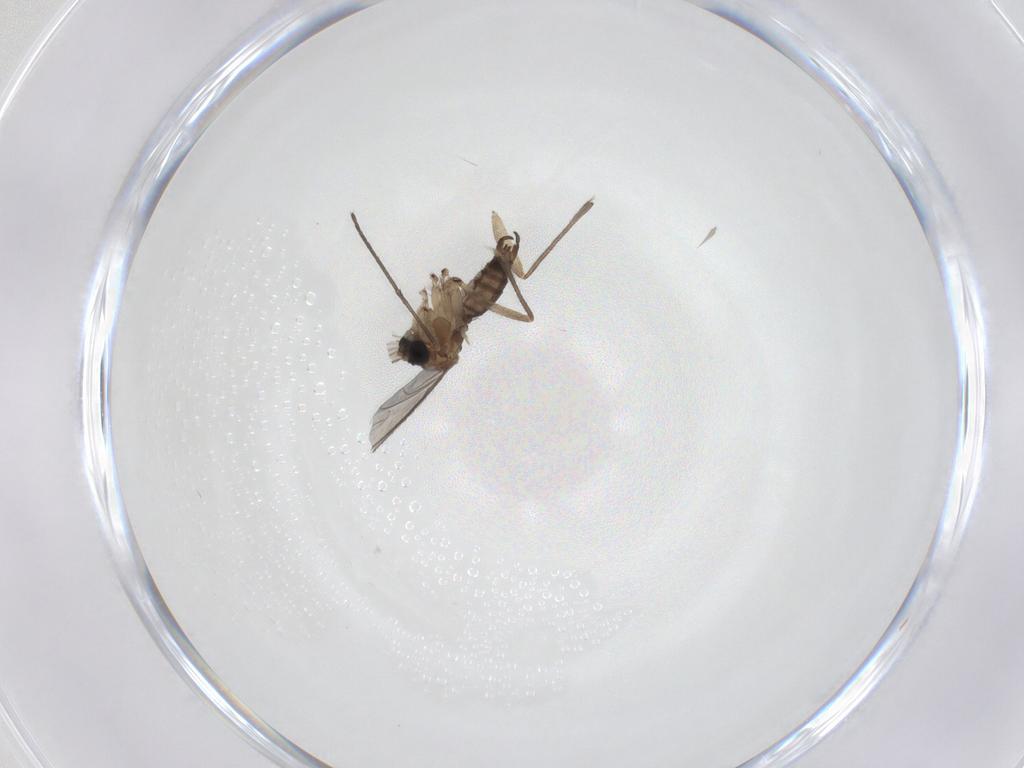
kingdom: Animalia
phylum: Arthropoda
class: Insecta
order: Diptera
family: Sciaridae
